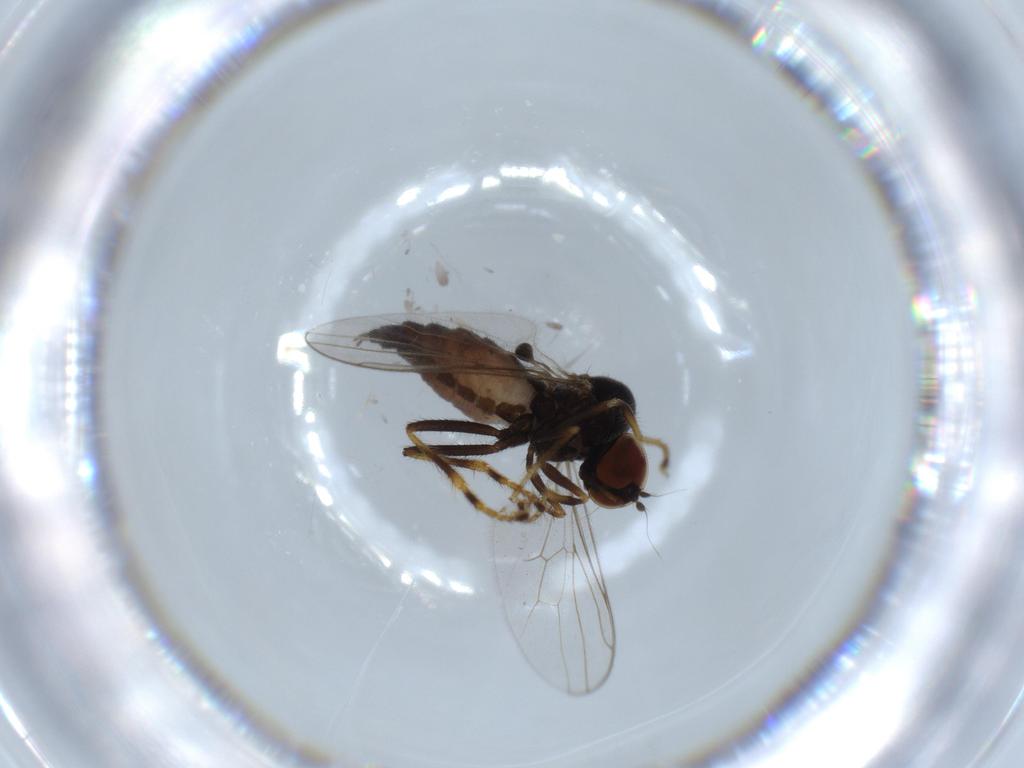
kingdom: Animalia
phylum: Arthropoda
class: Insecta
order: Diptera
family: Hybotidae
